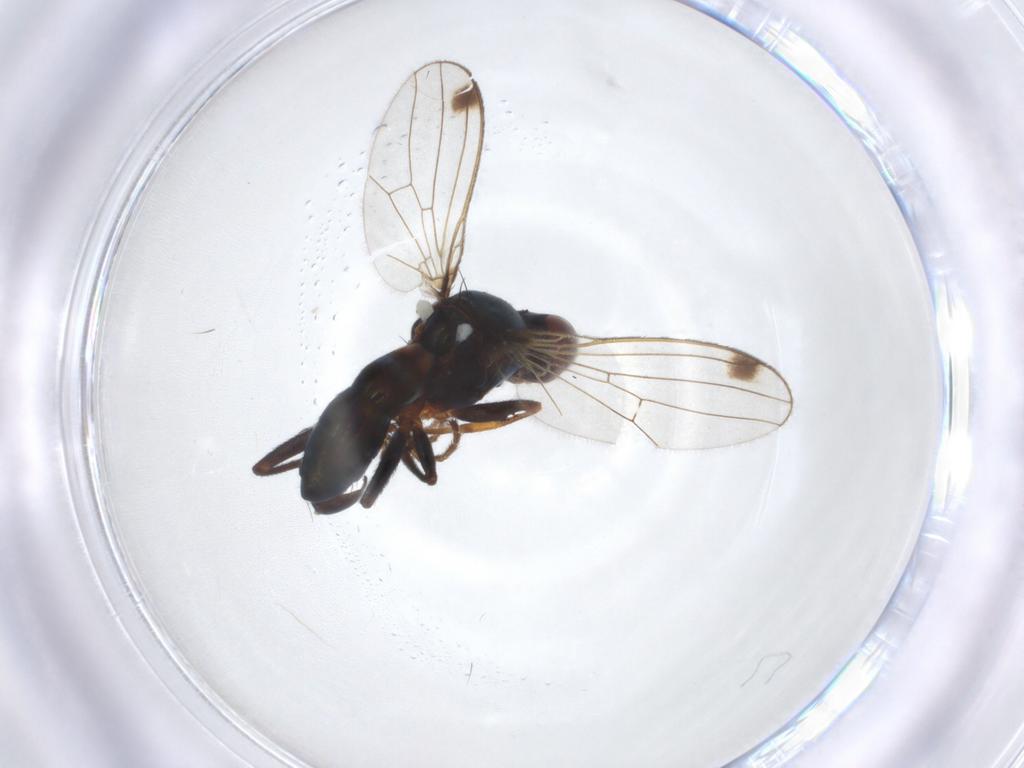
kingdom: Animalia
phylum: Arthropoda
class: Insecta
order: Diptera
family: Sepsidae
